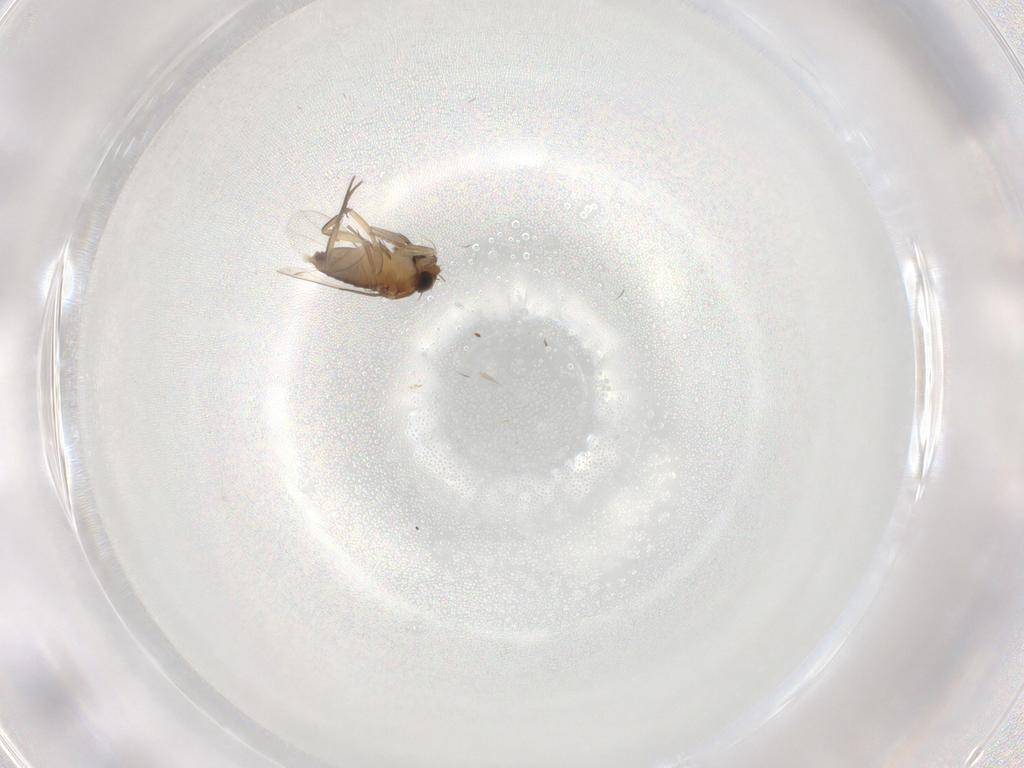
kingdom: Animalia
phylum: Arthropoda
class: Insecta
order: Diptera
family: Phoridae
